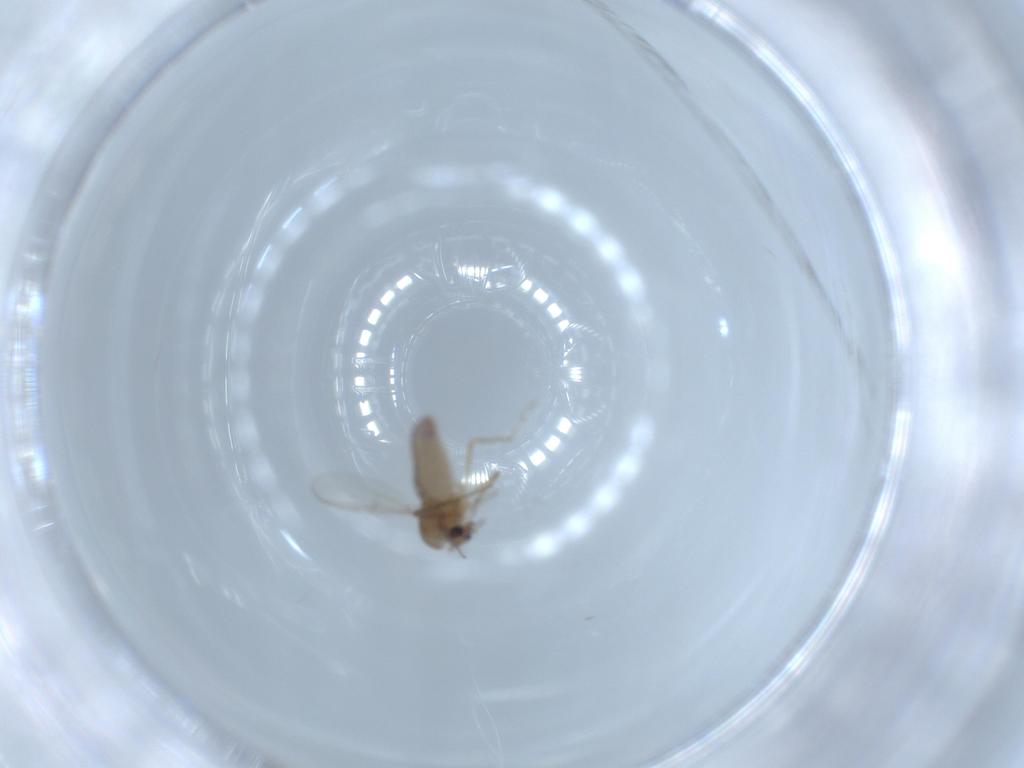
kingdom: Animalia
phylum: Arthropoda
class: Insecta
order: Diptera
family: Chironomidae
